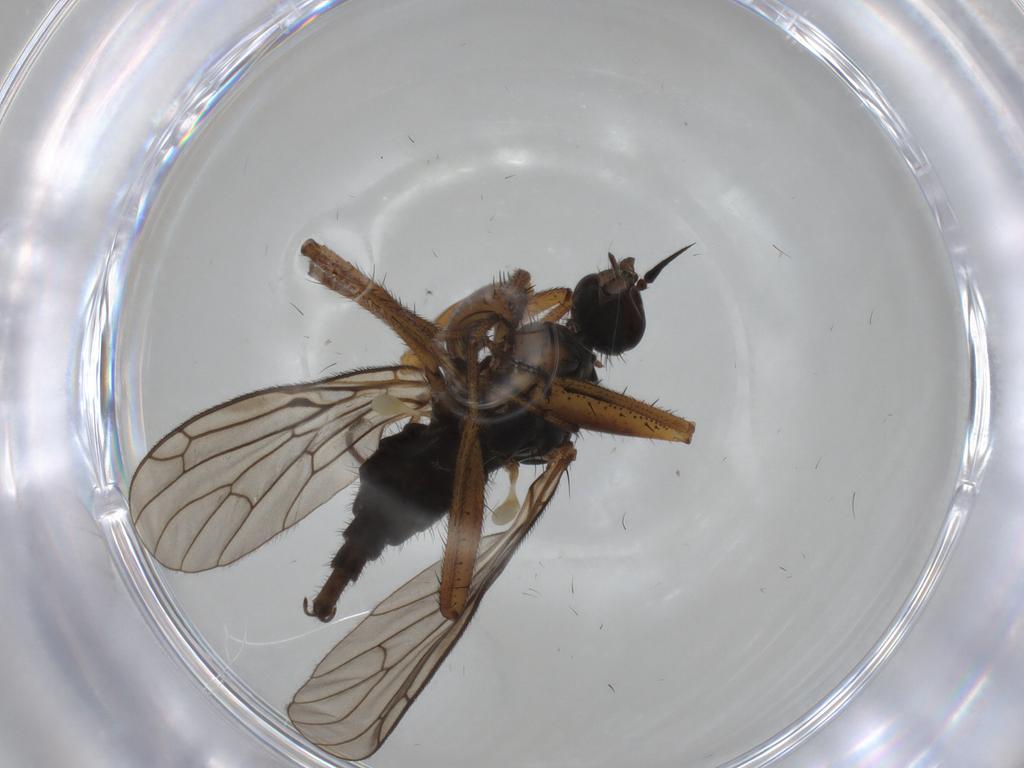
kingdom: Animalia
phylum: Arthropoda
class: Insecta
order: Diptera
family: Empididae
